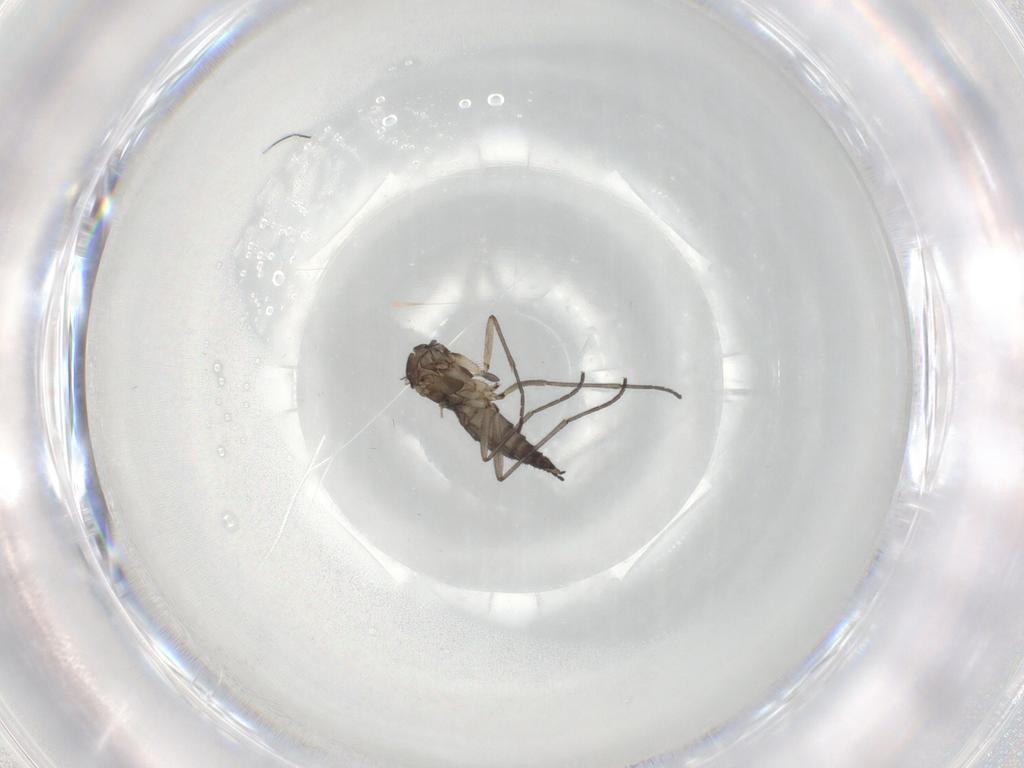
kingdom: Animalia
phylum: Arthropoda
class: Insecta
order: Diptera
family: Sciaridae
